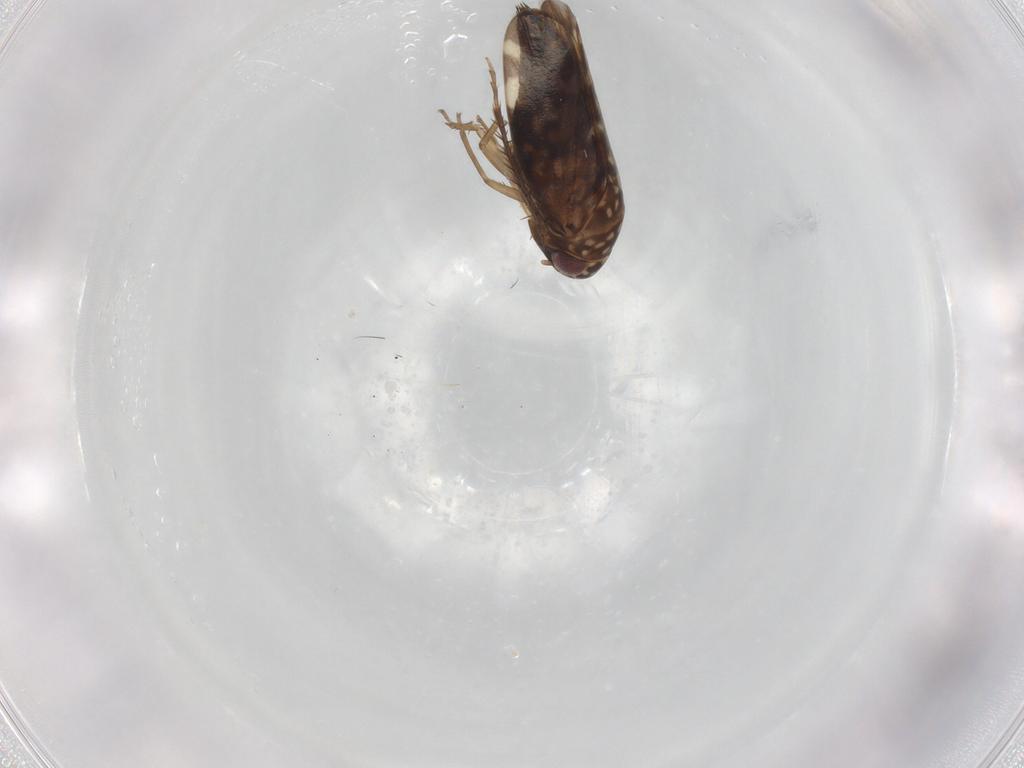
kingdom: Animalia
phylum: Arthropoda
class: Insecta
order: Hemiptera
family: Cicadellidae
